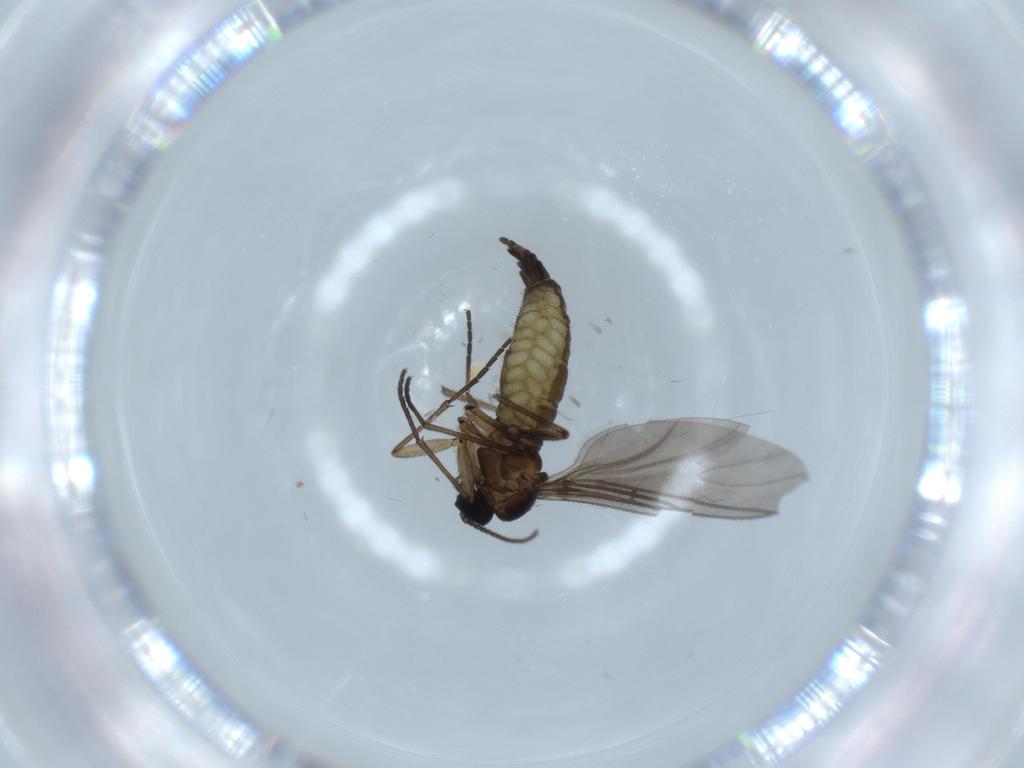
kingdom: Animalia
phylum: Arthropoda
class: Insecta
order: Diptera
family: Sciaridae
